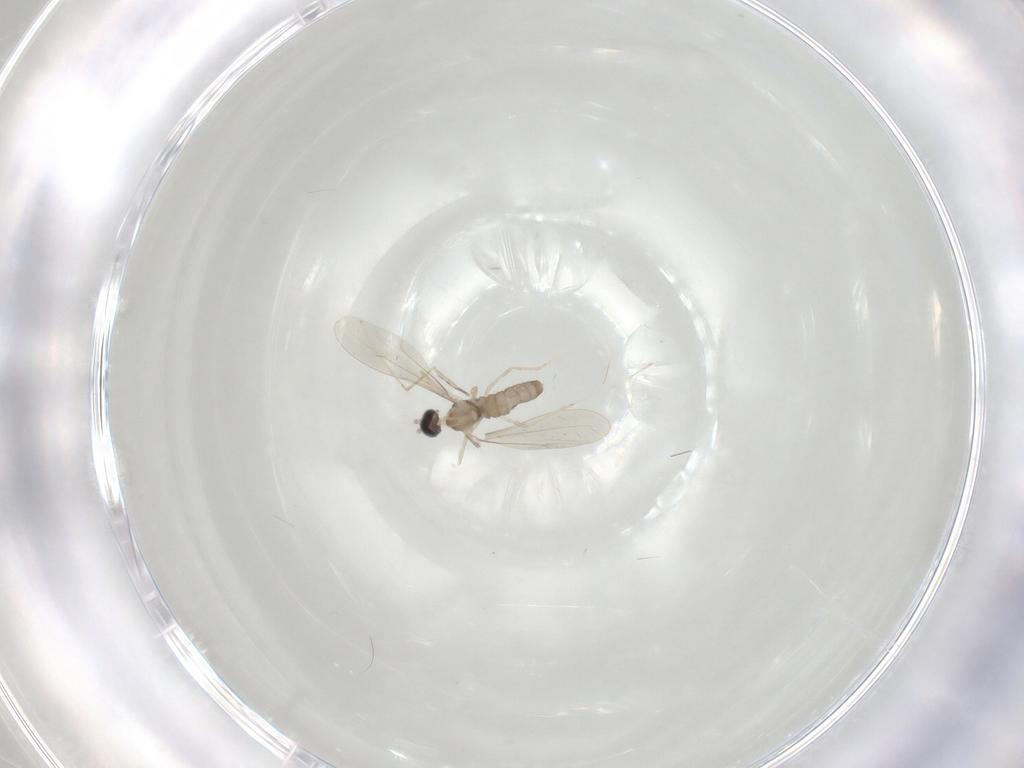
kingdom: Animalia
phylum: Arthropoda
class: Insecta
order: Diptera
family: Cecidomyiidae
